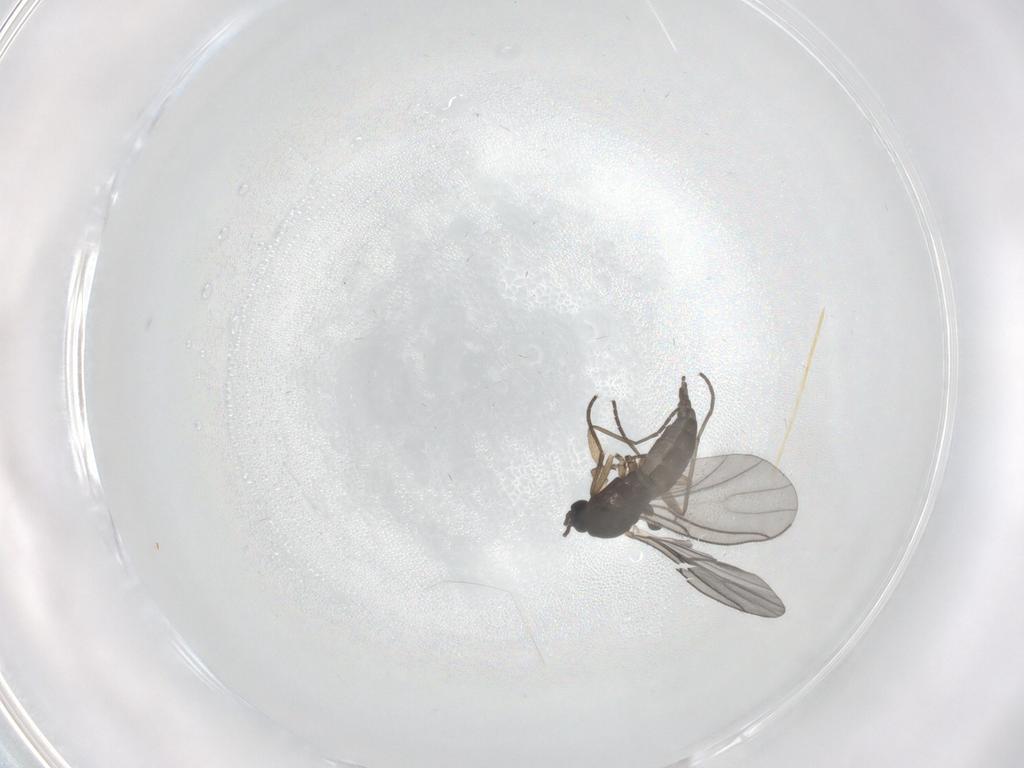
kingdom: Animalia
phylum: Arthropoda
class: Insecta
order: Diptera
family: Sciaridae
